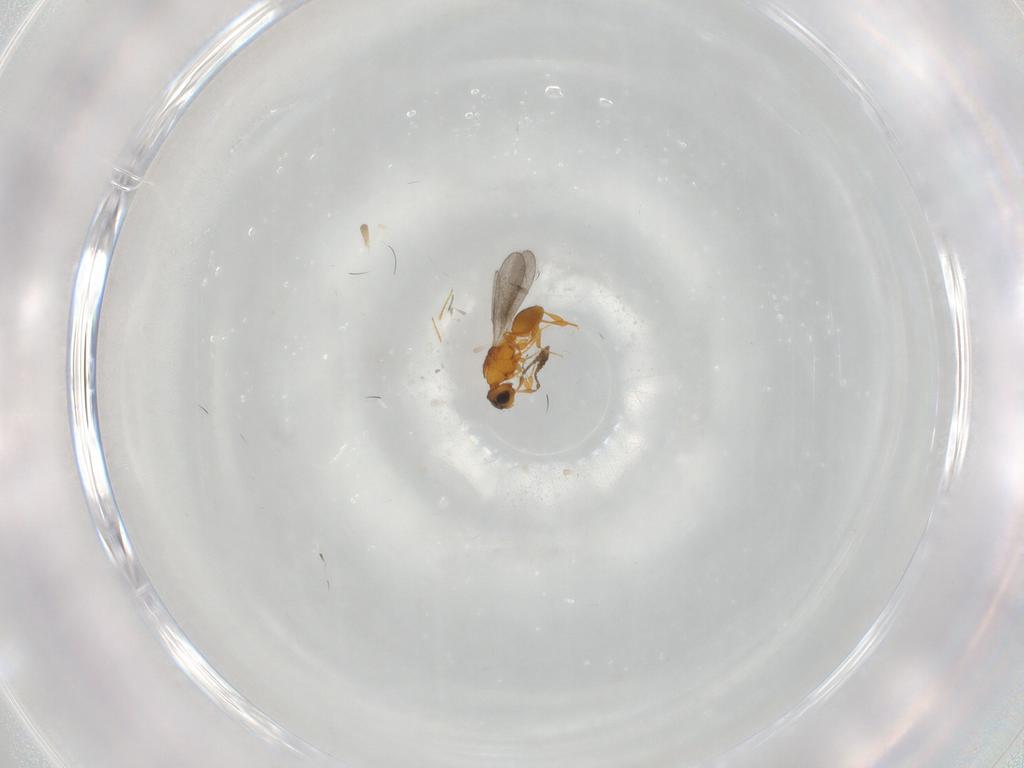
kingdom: Animalia
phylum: Arthropoda
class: Insecta
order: Hymenoptera
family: Platygastridae
